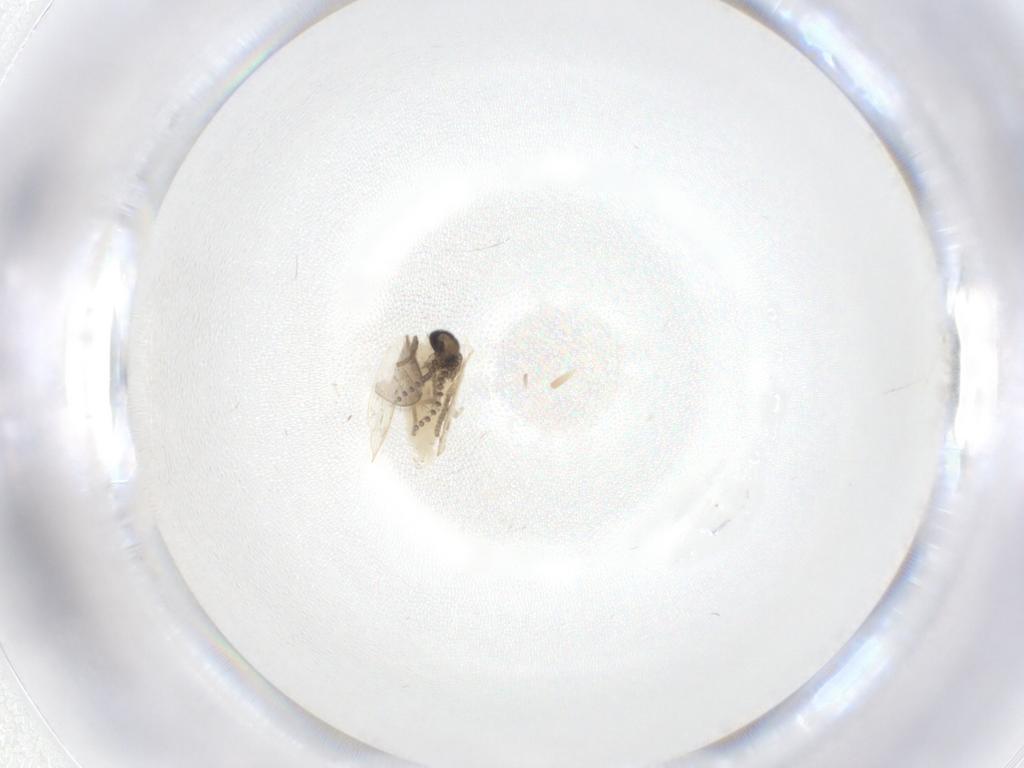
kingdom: Animalia
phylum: Arthropoda
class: Insecta
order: Diptera
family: Psychodidae
